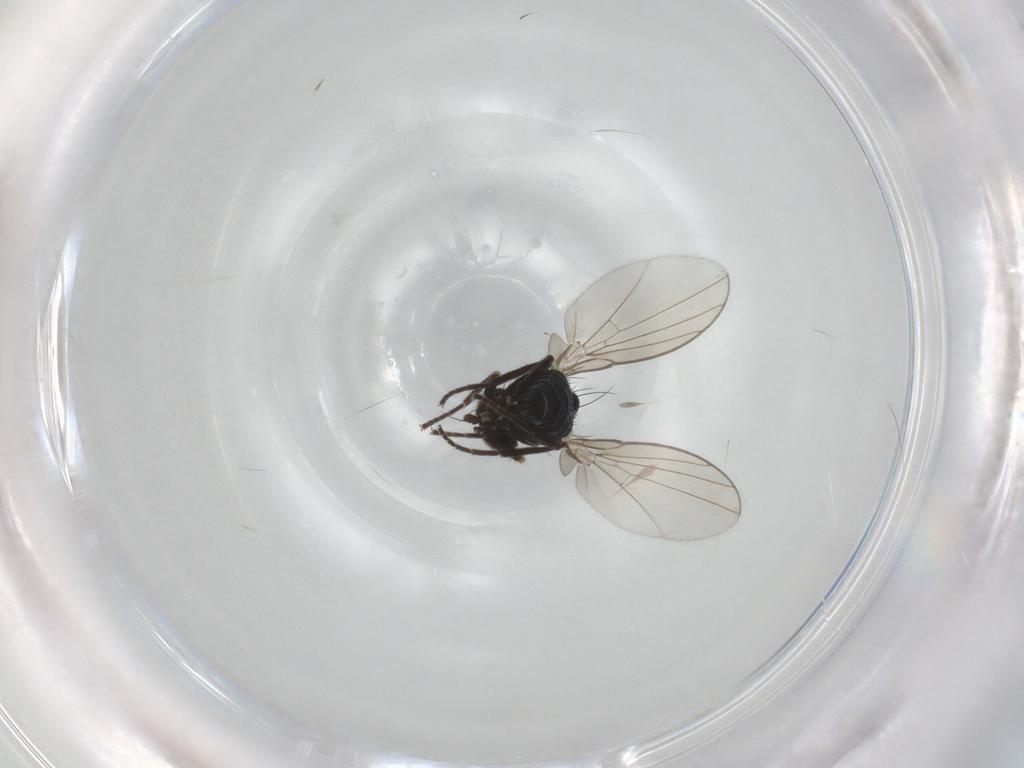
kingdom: Animalia
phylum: Arthropoda
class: Insecta
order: Diptera
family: Agromyzidae
